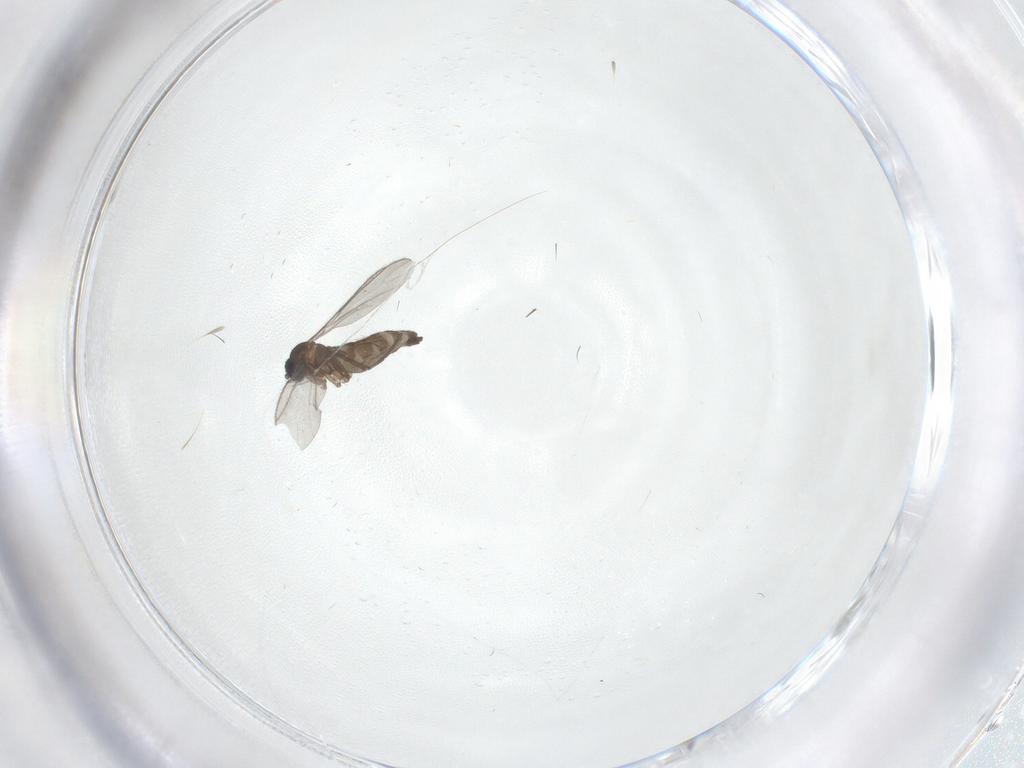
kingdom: Animalia
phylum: Arthropoda
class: Insecta
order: Diptera
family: Sciaridae
